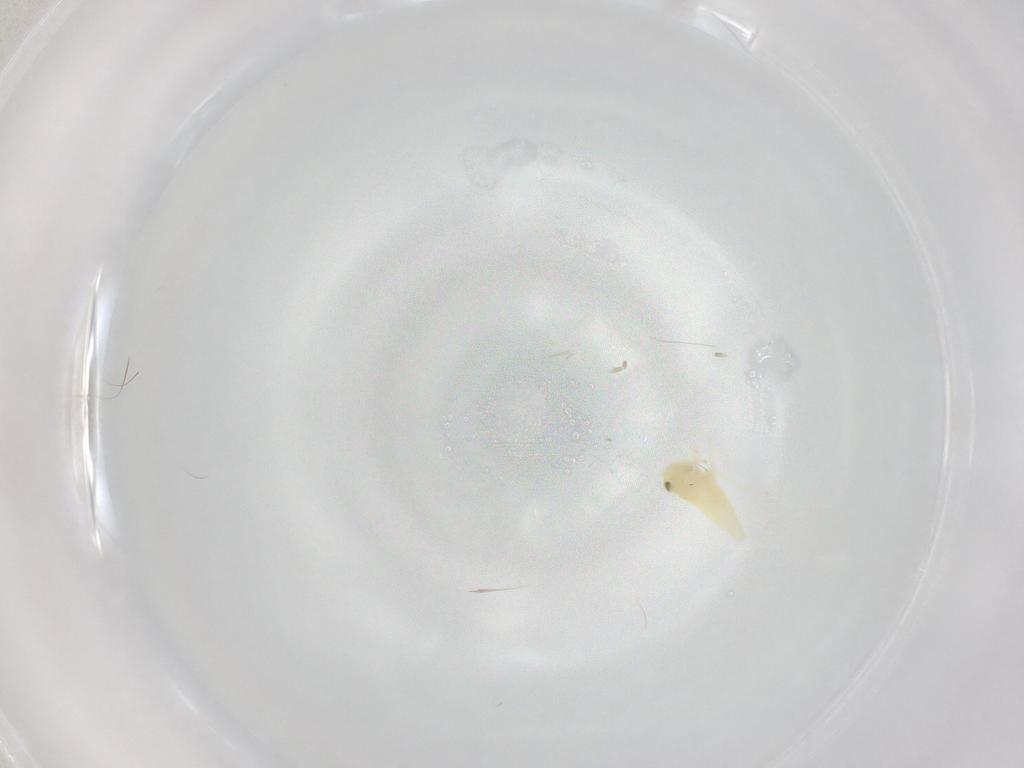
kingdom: Animalia
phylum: Arthropoda
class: Insecta
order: Hemiptera
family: Cicadellidae
